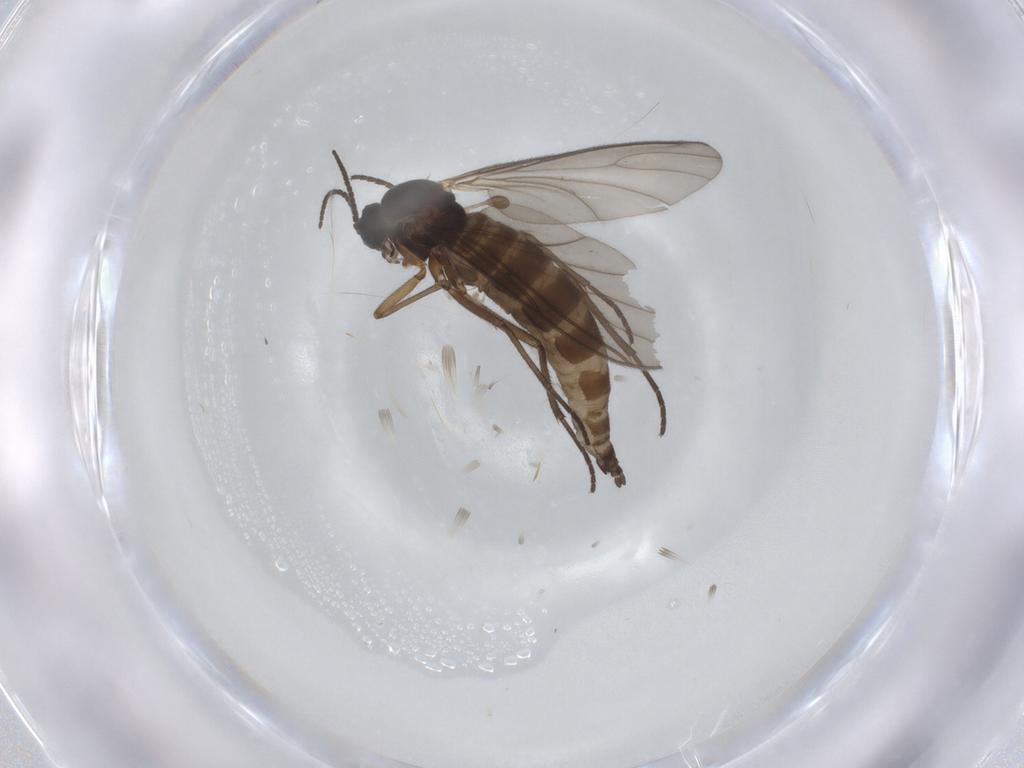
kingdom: Animalia
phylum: Arthropoda
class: Insecta
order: Diptera
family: Sciaridae
